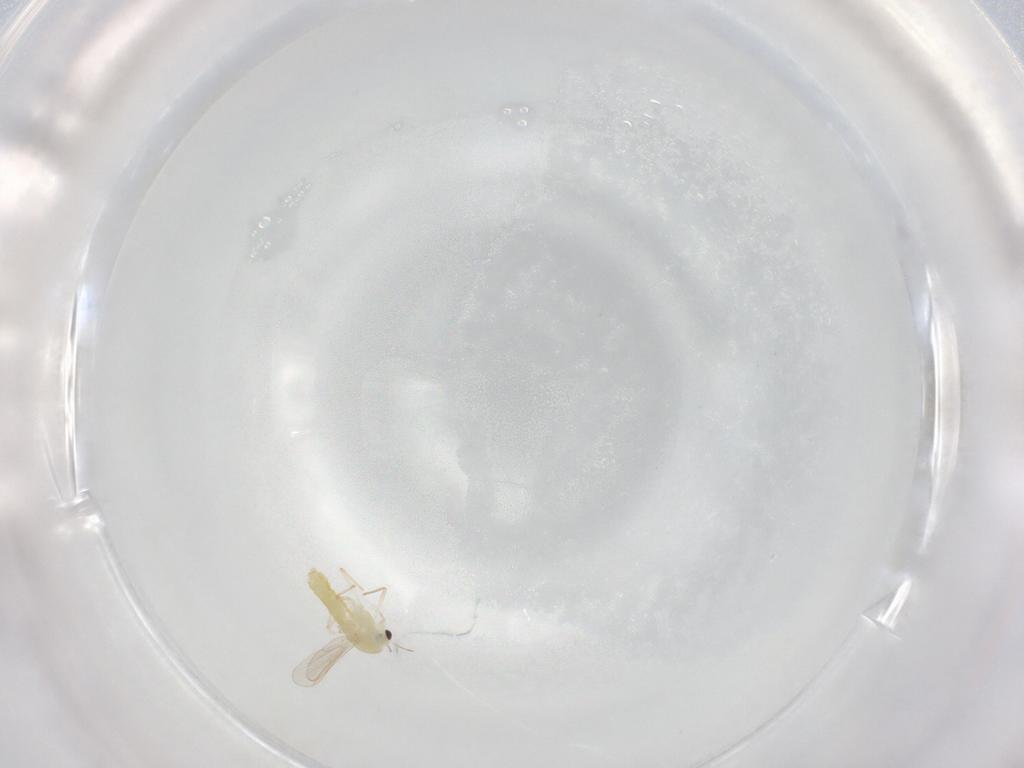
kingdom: Animalia
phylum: Arthropoda
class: Insecta
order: Diptera
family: Chironomidae
